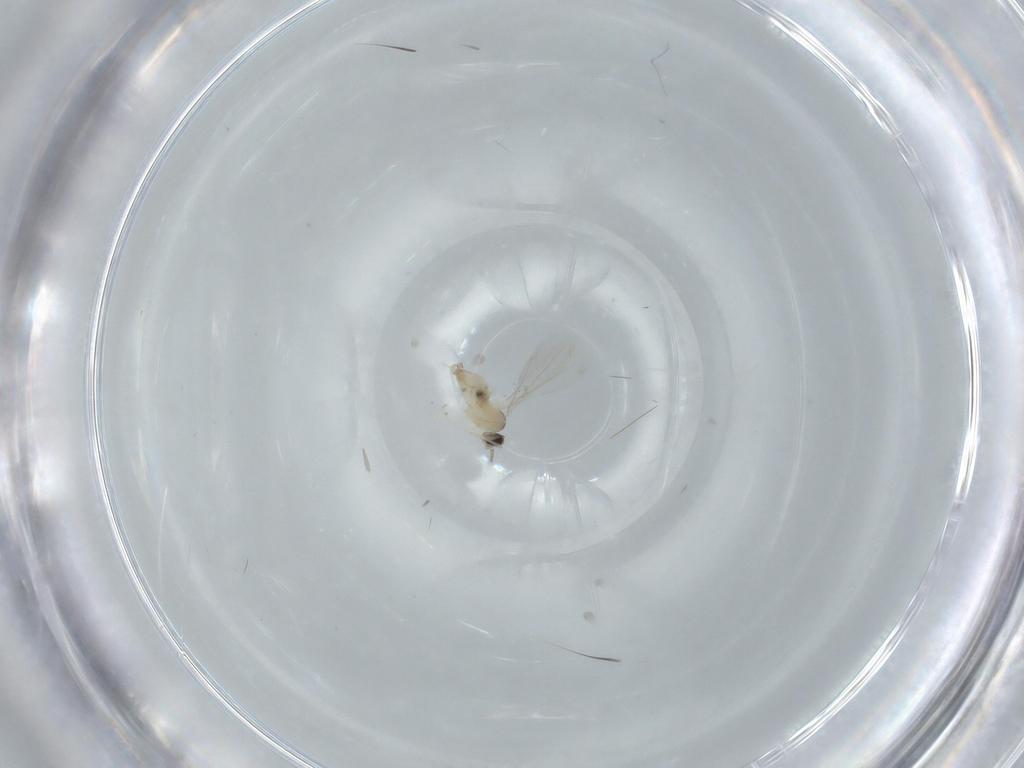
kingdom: Animalia
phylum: Arthropoda
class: Insecta
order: Diptera
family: Cecidomyiidae
